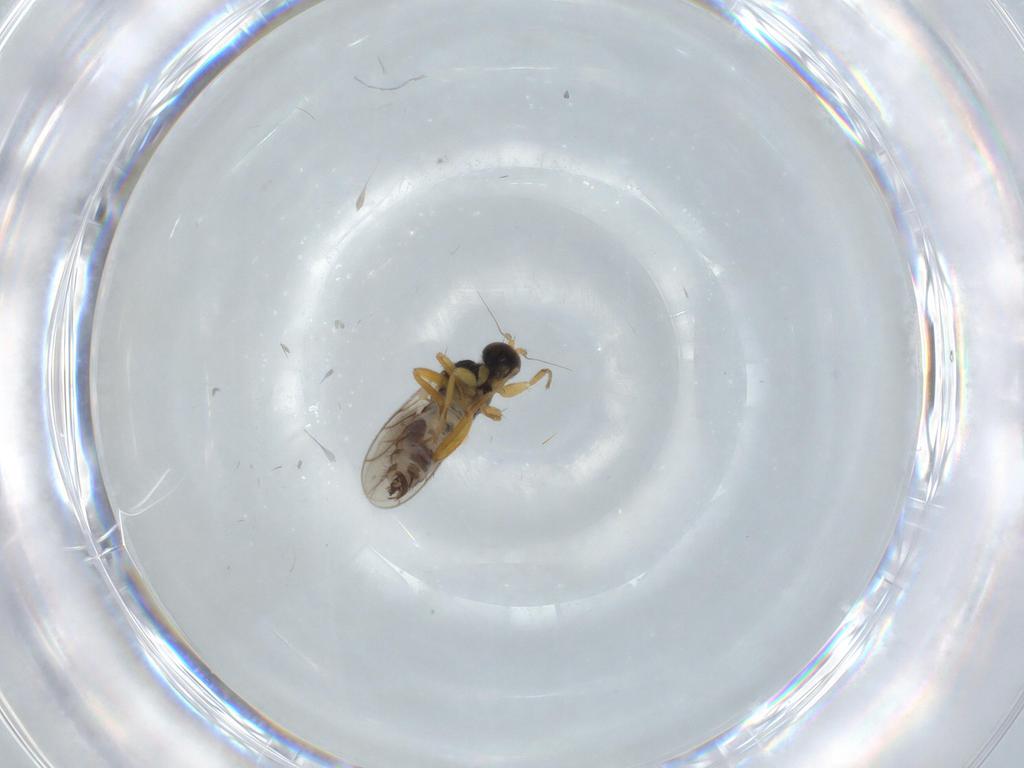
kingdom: Animalia
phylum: Arthropoda
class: Insecta
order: Diptera
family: Hybotidae
